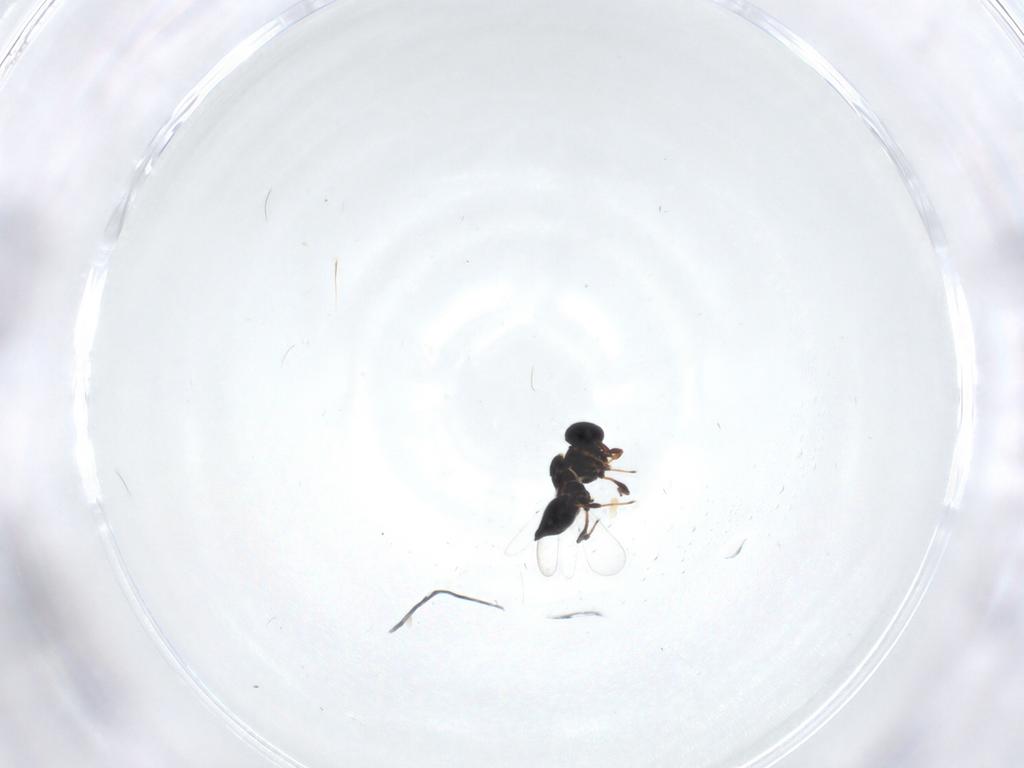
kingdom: Animalia
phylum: Arthropoda
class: Insecta
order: Hymenoptera
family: Platygastridae
